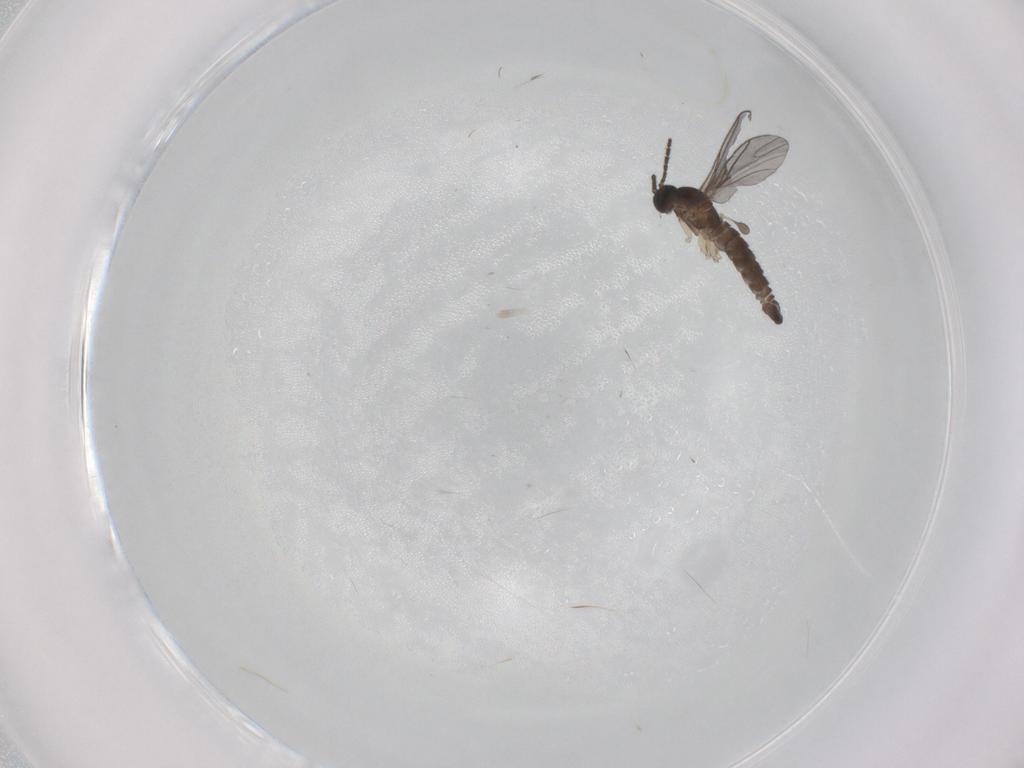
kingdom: Animalia
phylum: Arthropoda
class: Insecta
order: Diptera
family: Sciaridae
